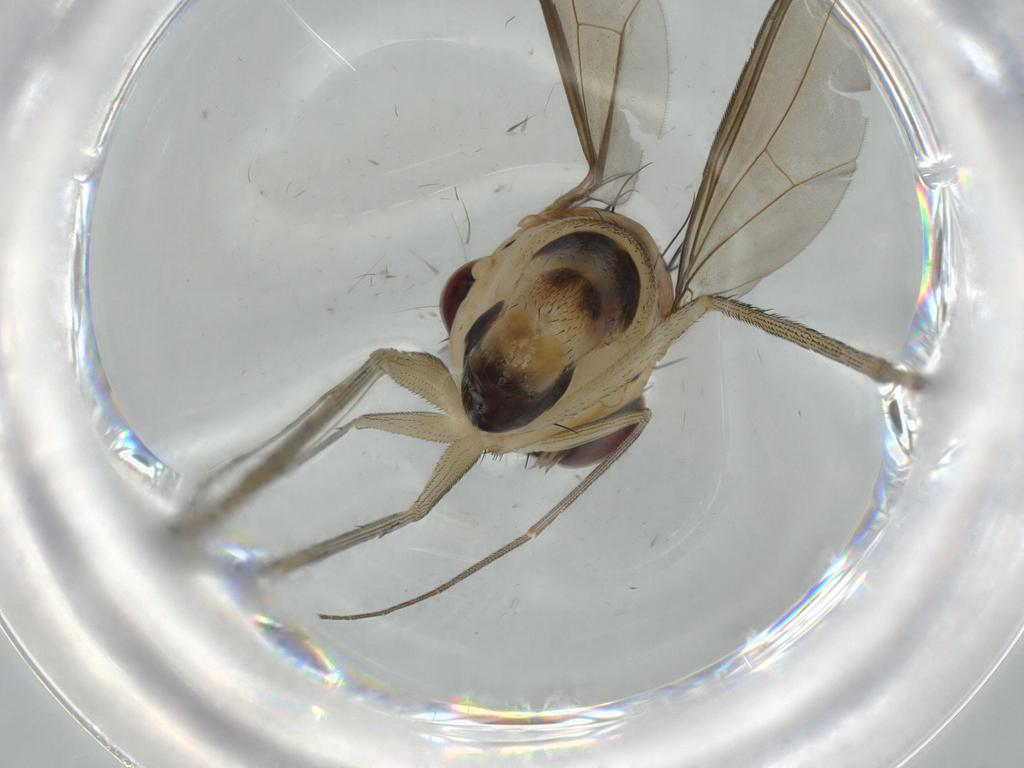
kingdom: Animalia
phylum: Arthropoda
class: Insecta
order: Diptera
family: Dolichopodidae
